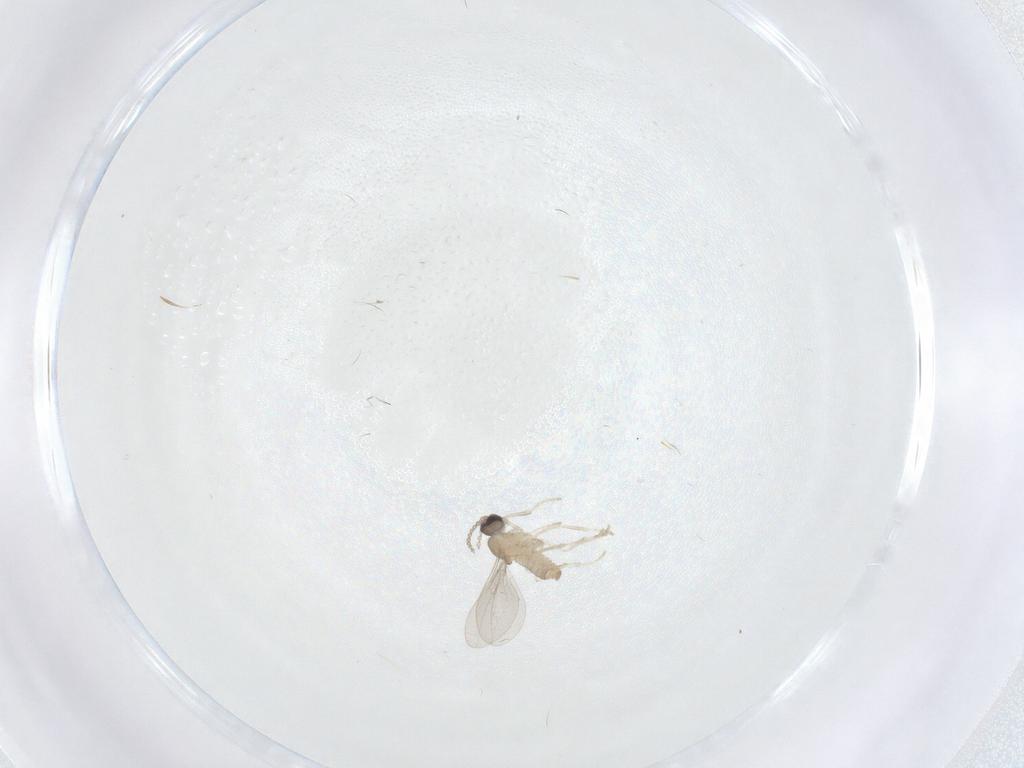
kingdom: Animalia
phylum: Arthropoda
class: Insecta
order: Diptera
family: Cecidomyiidae
